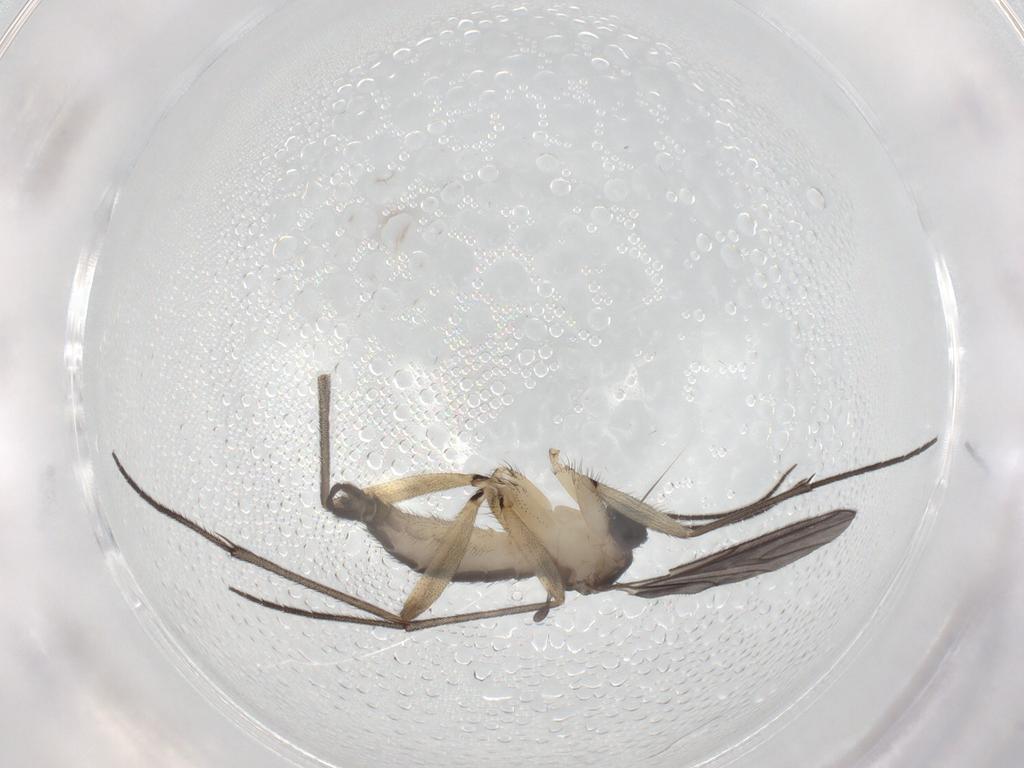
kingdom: Animalia
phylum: Arthropoda
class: Insecta
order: Diptera
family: Sciaridae
